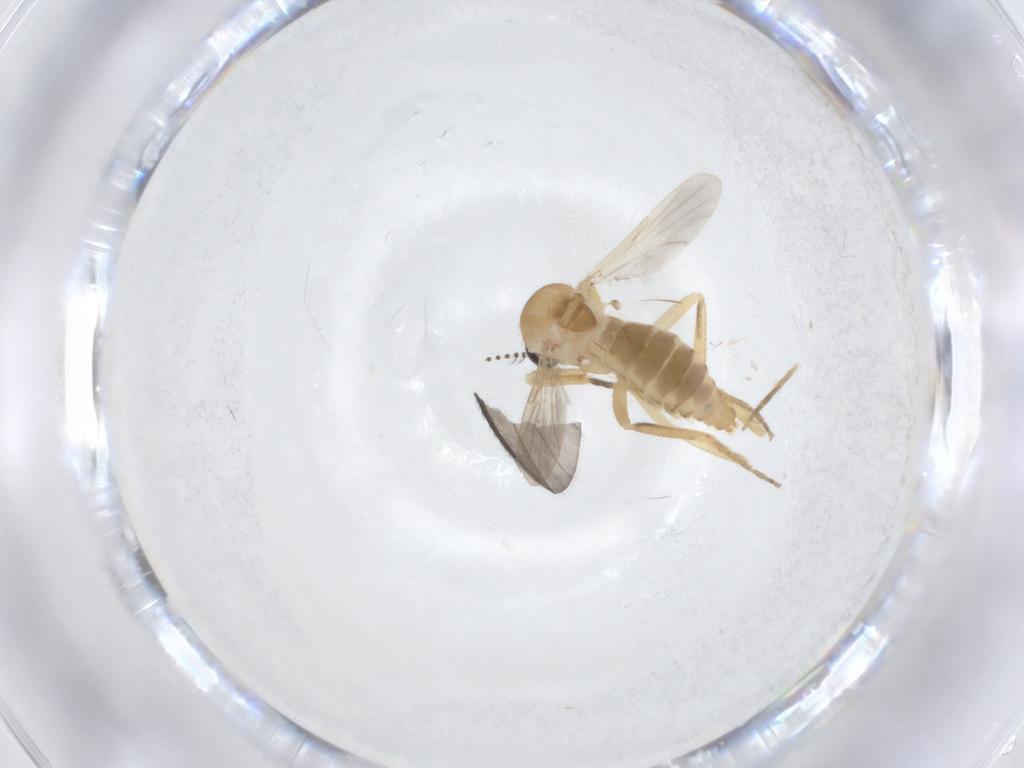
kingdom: Animalia
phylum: Arthropoda
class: Insecta
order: Diptera
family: Ceratopogonidae
